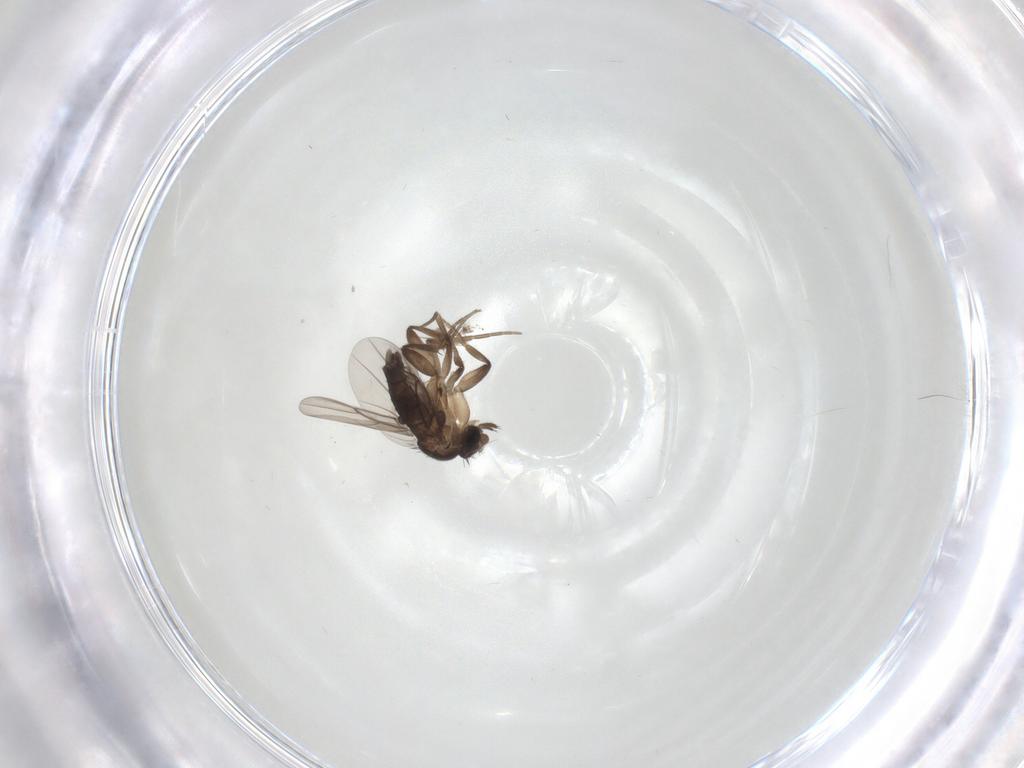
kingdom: Animalia
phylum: Arthropoda
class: Insecta
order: Diptera
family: Phoridae
